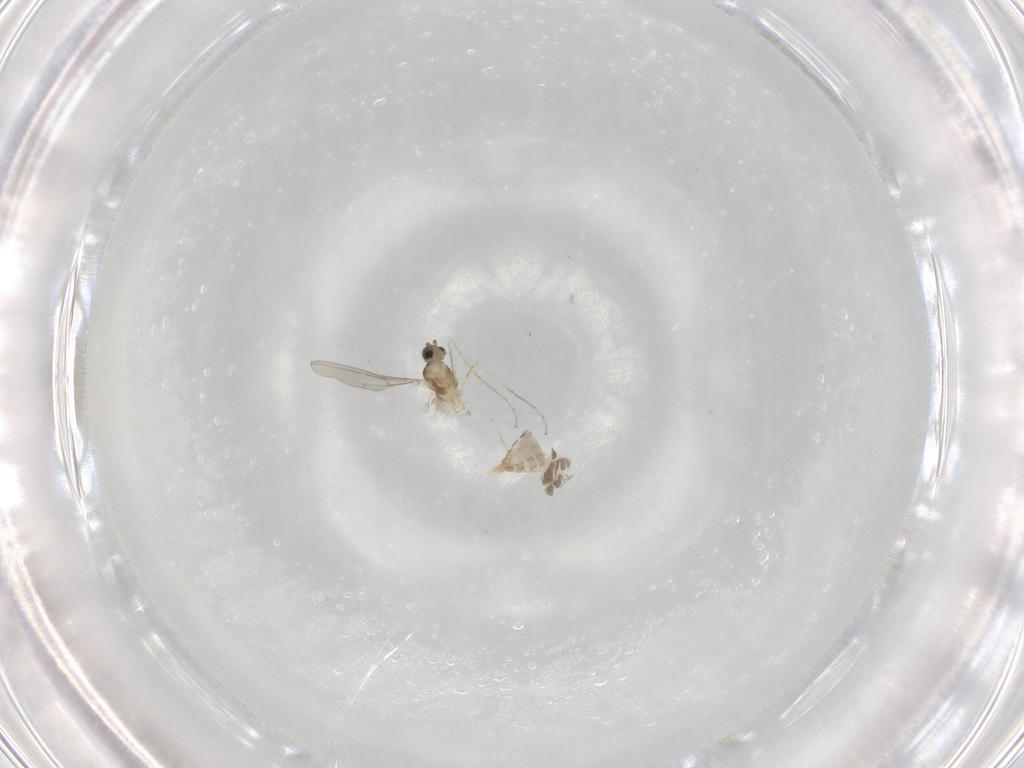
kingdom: Animalia
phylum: Arthropoda
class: Insecta
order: Diptera
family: Cecidomyiidae
